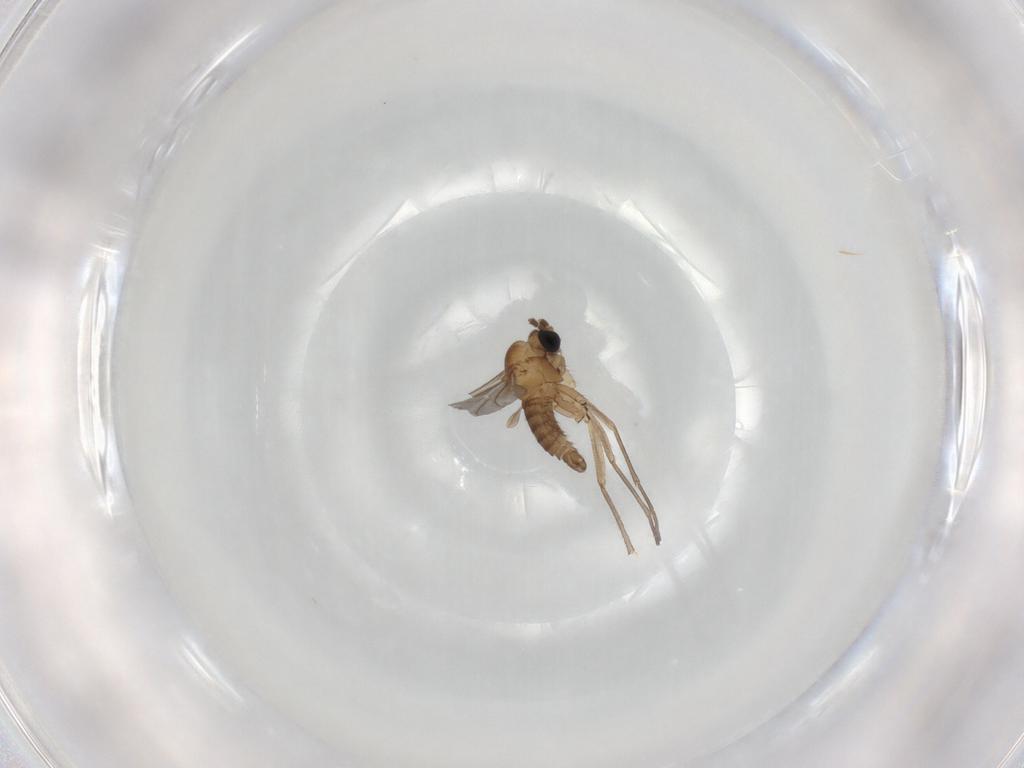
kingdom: Animalia
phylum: Arthropoda
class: Insecta
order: Diptera
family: Sciaridae
